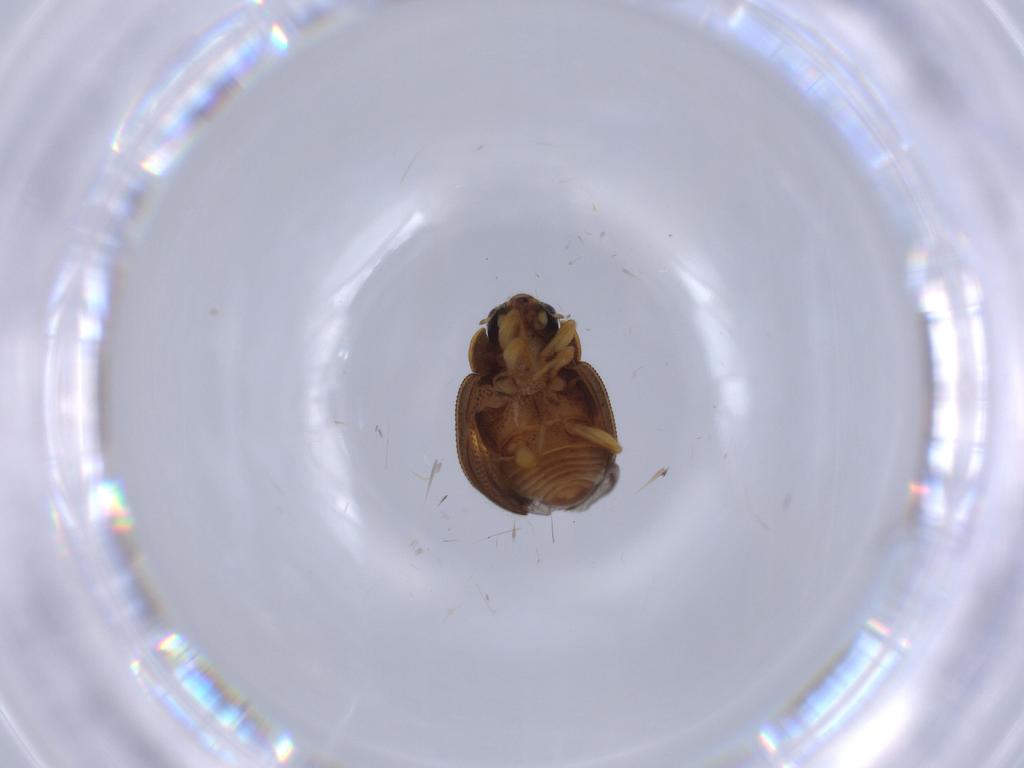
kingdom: Animalia
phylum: Arthropoda
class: Insecta
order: Coleoptera
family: Coccinellidae
